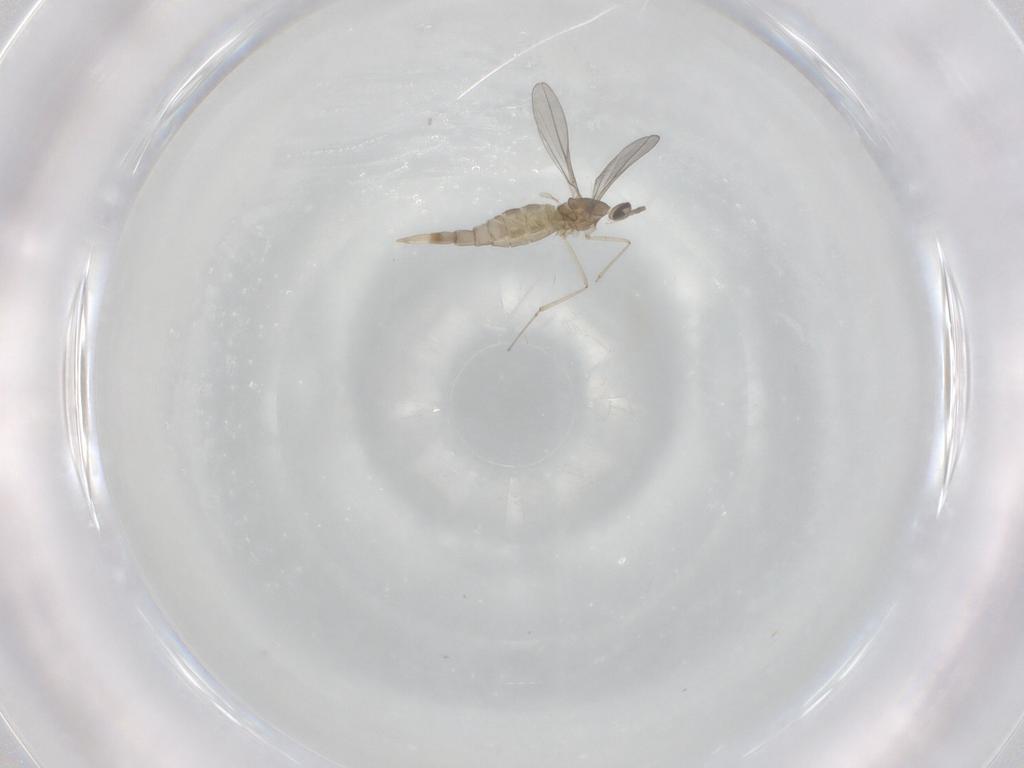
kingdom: Animalia
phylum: Arthropoda
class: Insecta
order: Diptera
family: Cecidomyiidae
